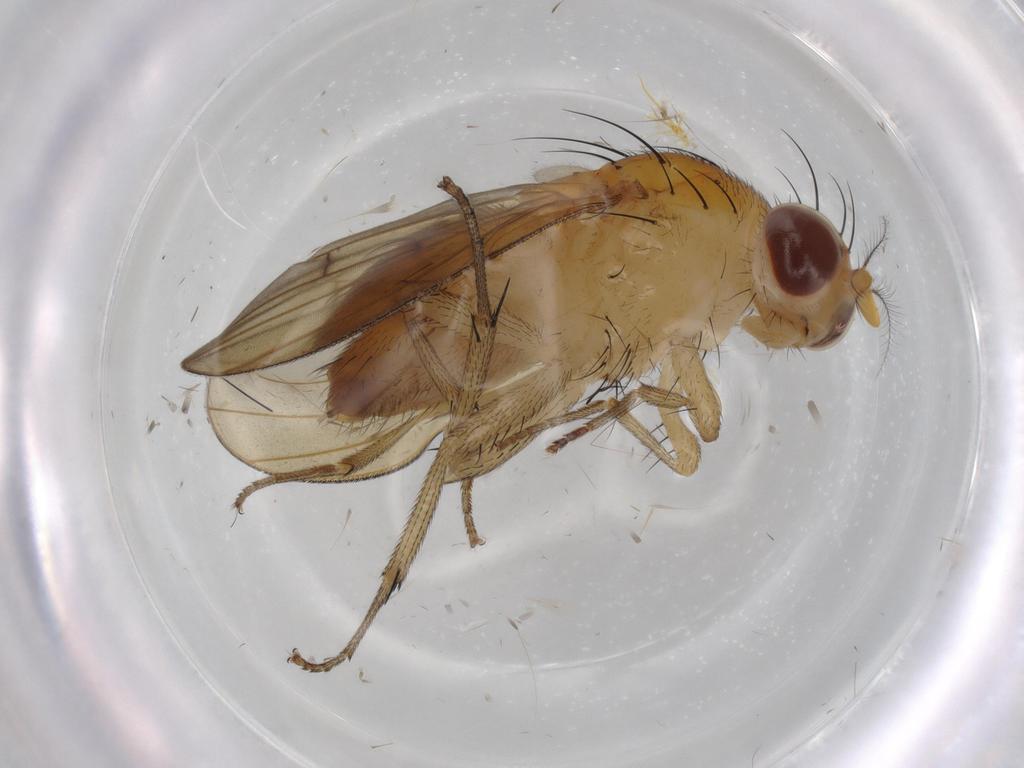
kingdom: Animalia
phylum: Arthropoda
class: Insecta
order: Diptera
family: Lauxaniidae
